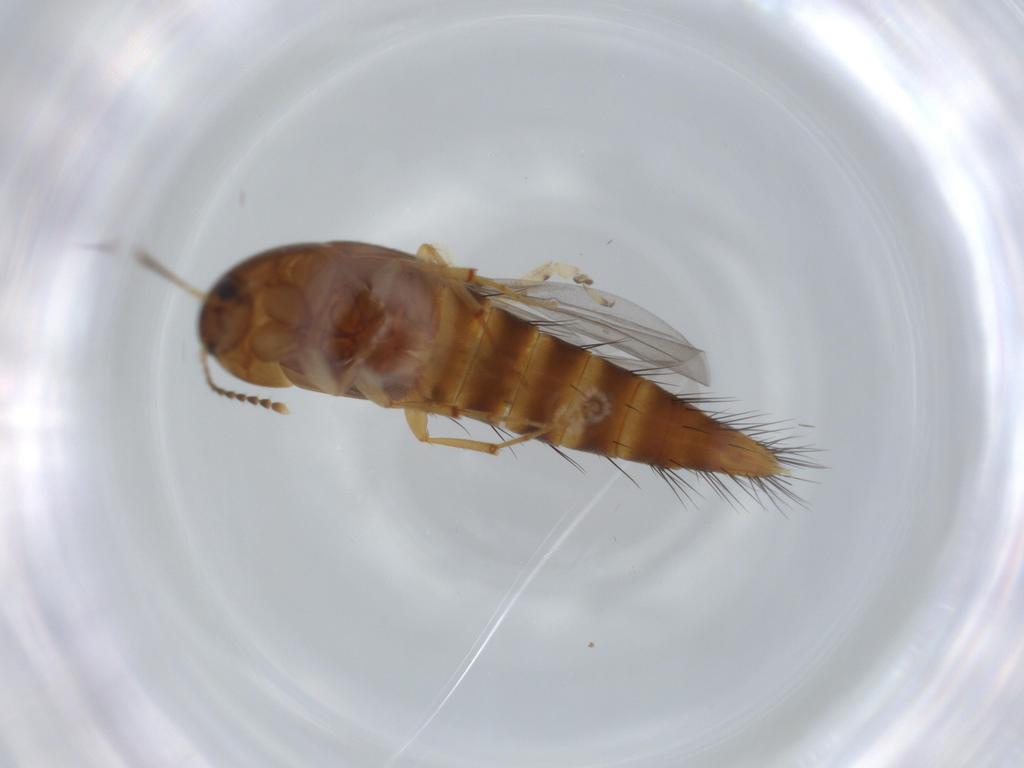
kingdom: Animalia
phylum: Arthropoda
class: Insecta
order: Coleoptera
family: Staphylinidae
